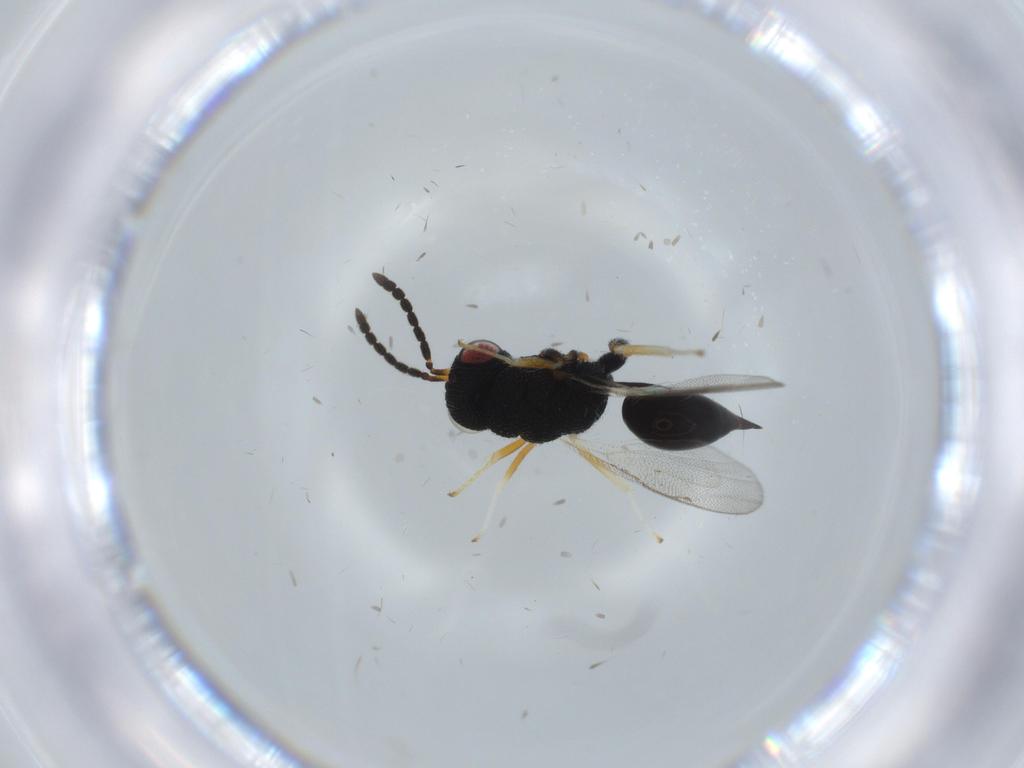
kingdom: Animalia
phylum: Arthropoda
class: Insecta
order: Hymenoptera
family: Eurytomidae
